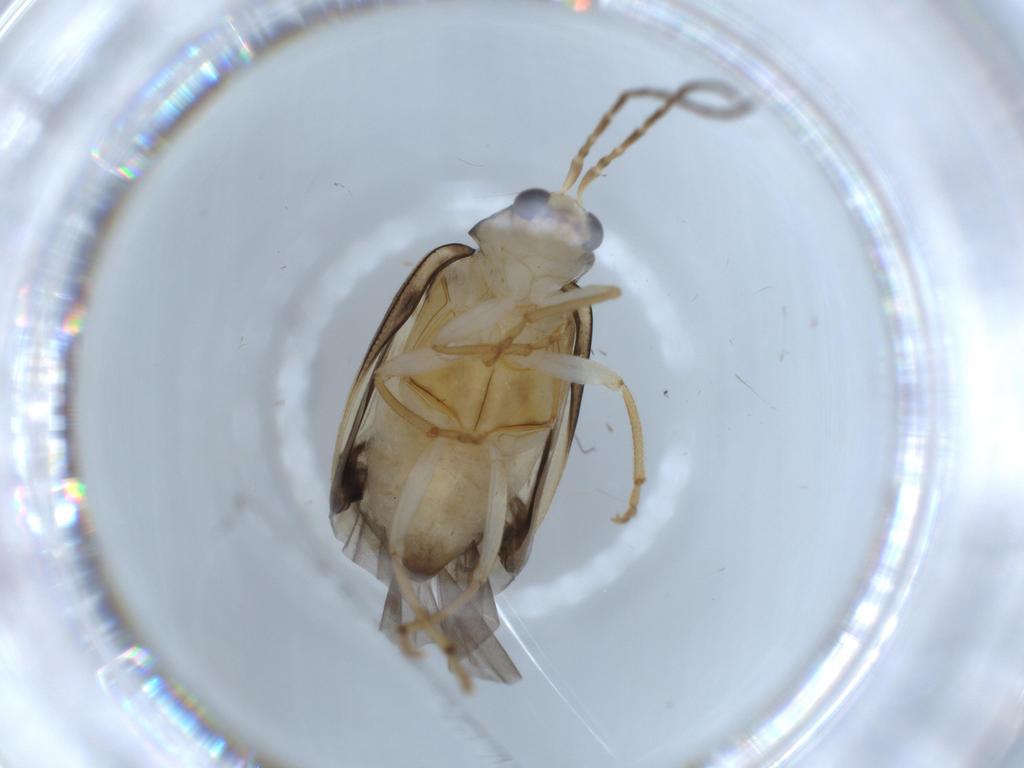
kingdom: Animalia
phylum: Arthropoda
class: Insecta
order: Coleoptera
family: Chrysomelidae
